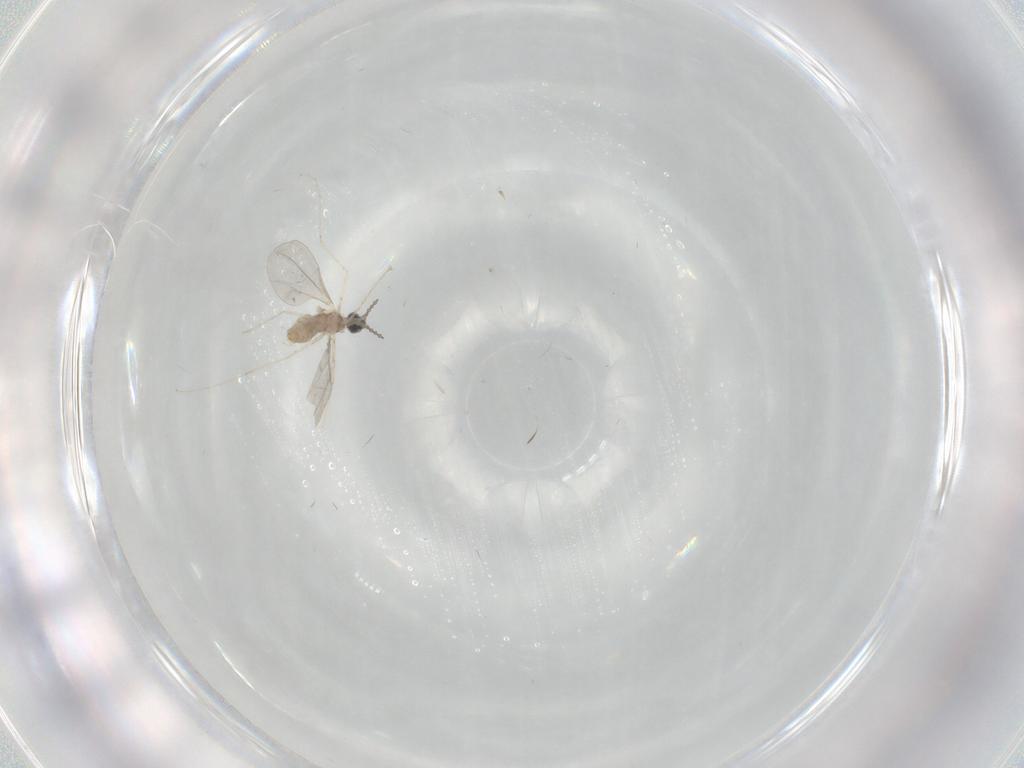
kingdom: Animalia
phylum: Arthropoda
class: Insecta
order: Diptera
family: Cecidomyiidae
